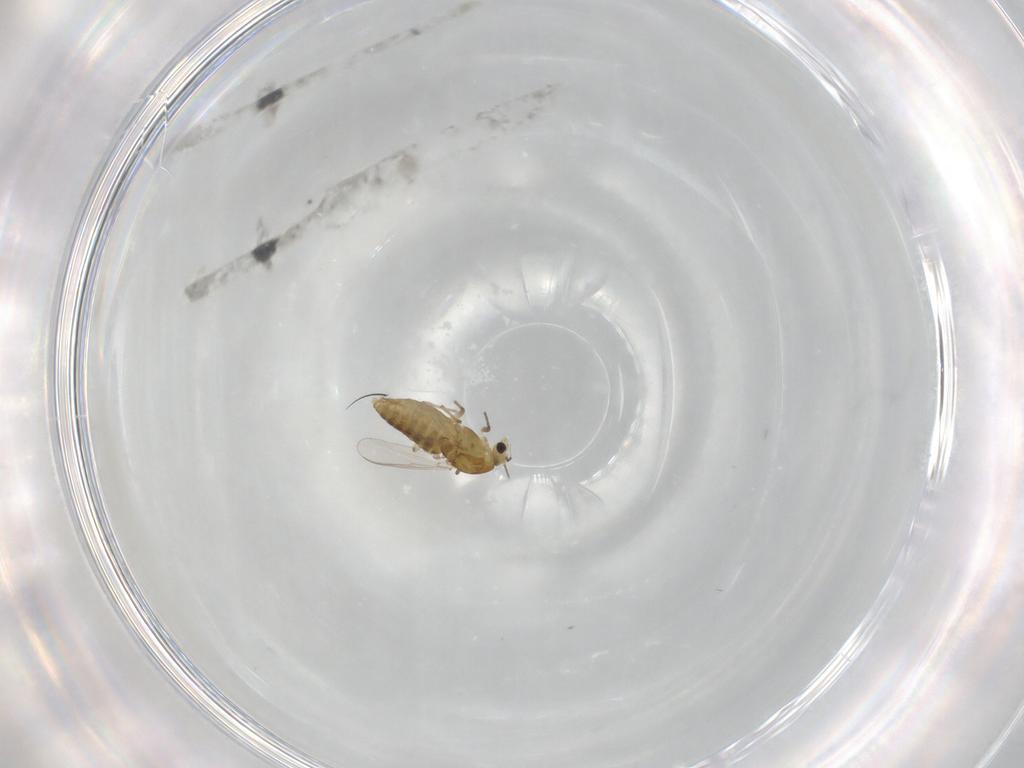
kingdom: Animalia
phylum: Arthropoda
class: Insecta
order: Diptera
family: Chironomidae
